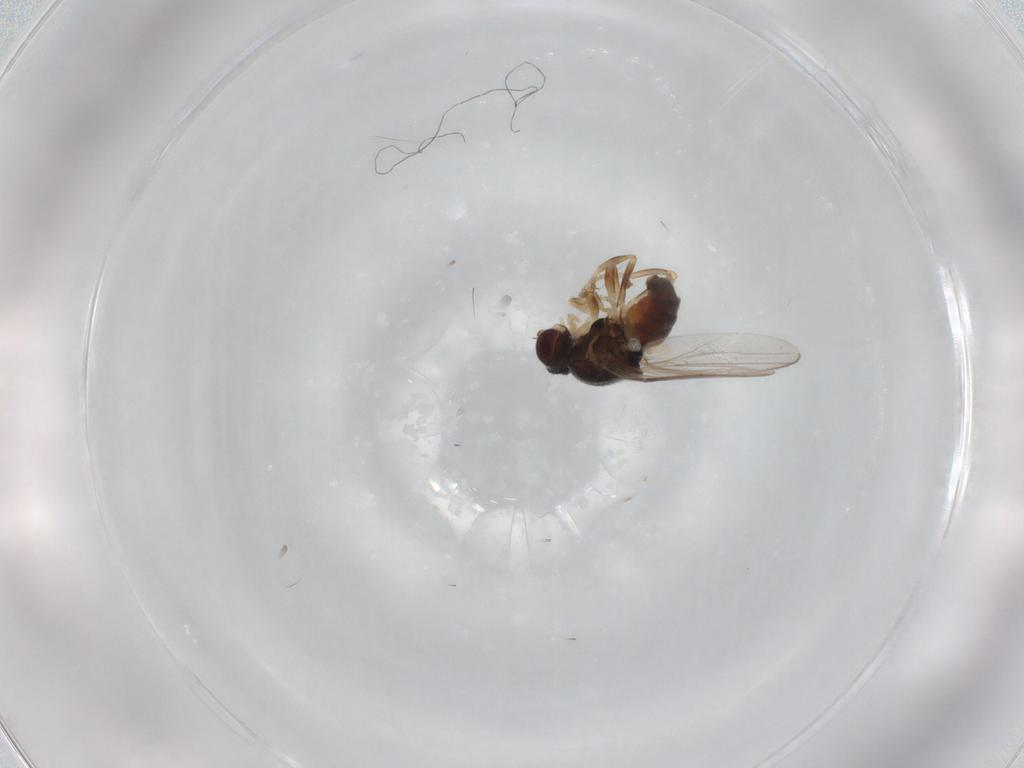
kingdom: Animalia
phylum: Arthropoda
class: Insecta
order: Diptera
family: Chloropidae
